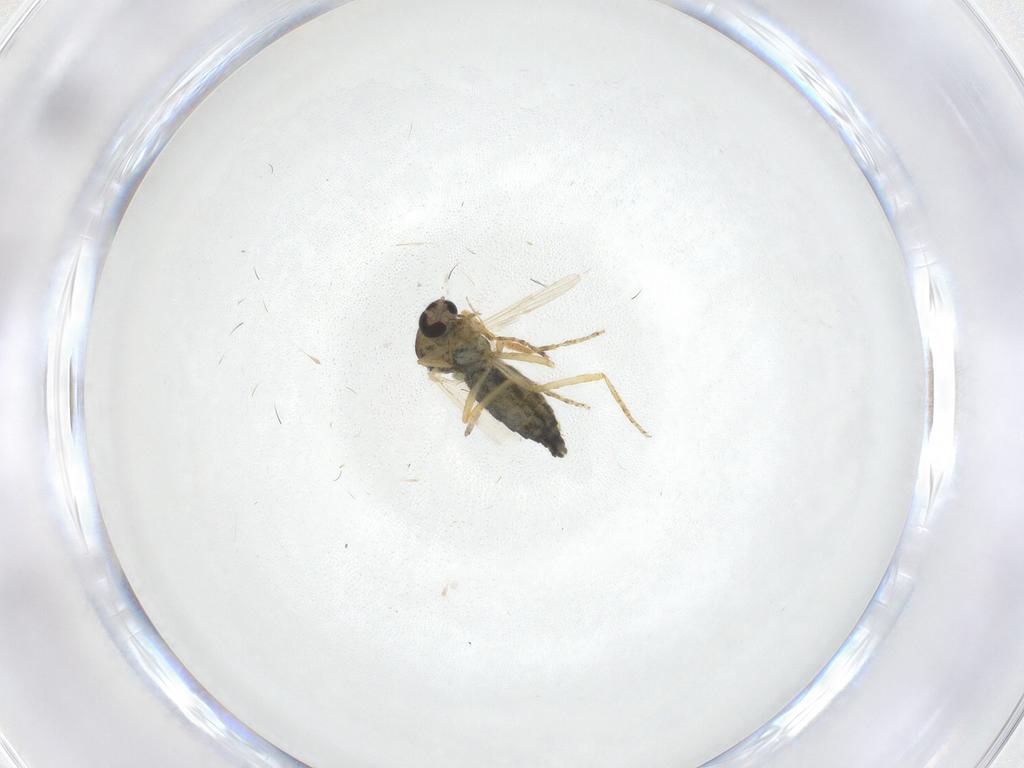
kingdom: Animalia
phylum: Arthropoda
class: Insecta
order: Diptera
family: Ceratopogonidae
